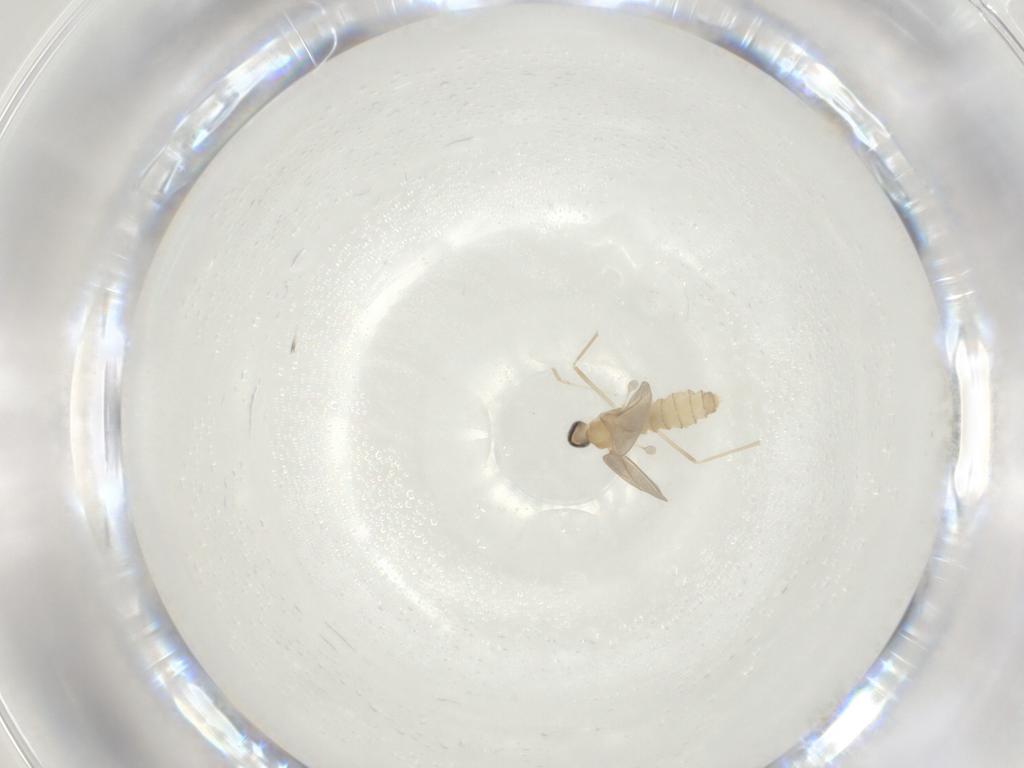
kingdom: Animalia
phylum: Arthropoda
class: Insecta
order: Diptera
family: Cecidomyiidae
